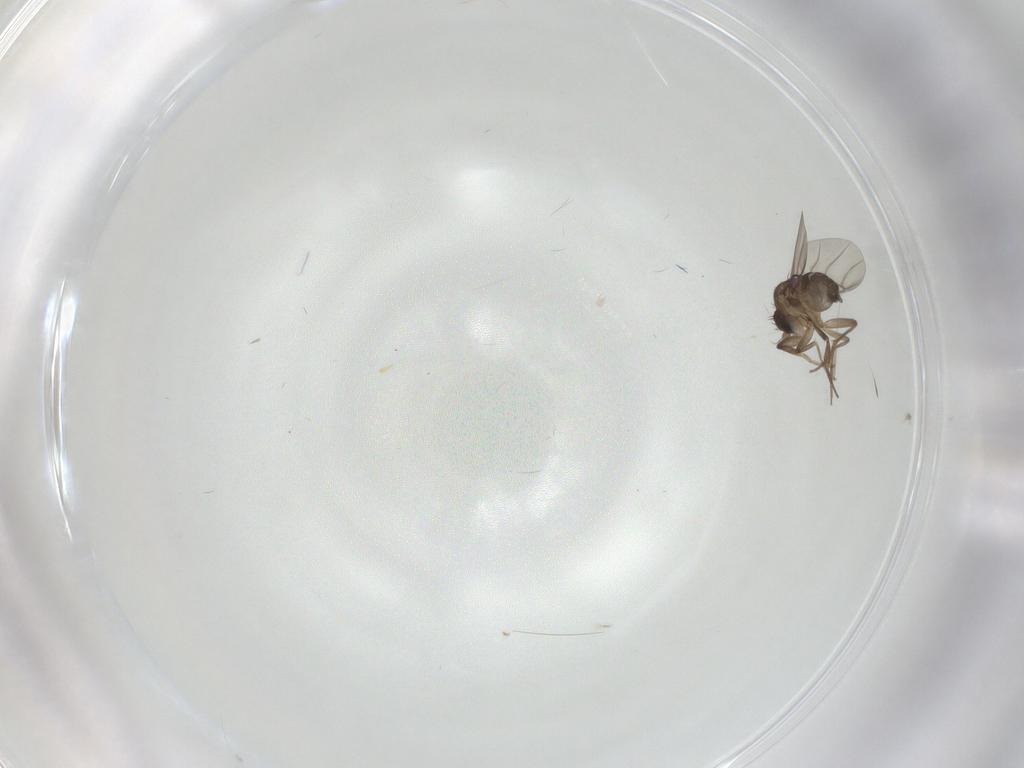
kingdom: Animalia
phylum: Arthropoda
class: Insecta
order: Diptera
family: Phoridae
